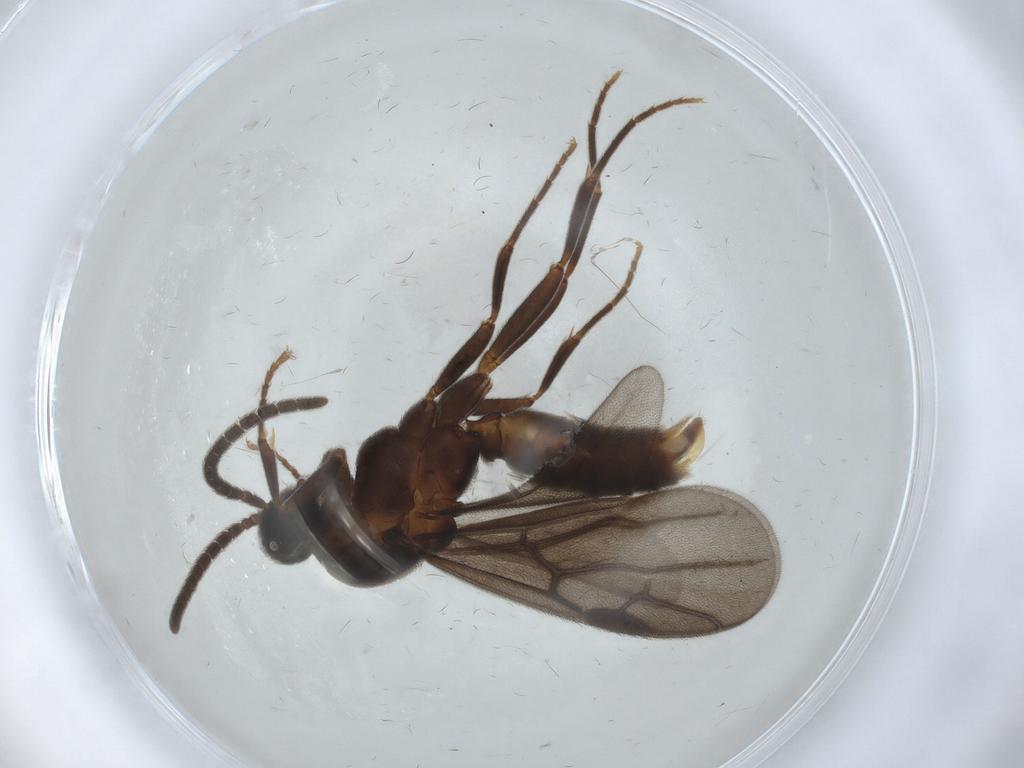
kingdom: Animalia
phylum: Arthropoda
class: Insecta
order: Hymenoptera
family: Formicidae
